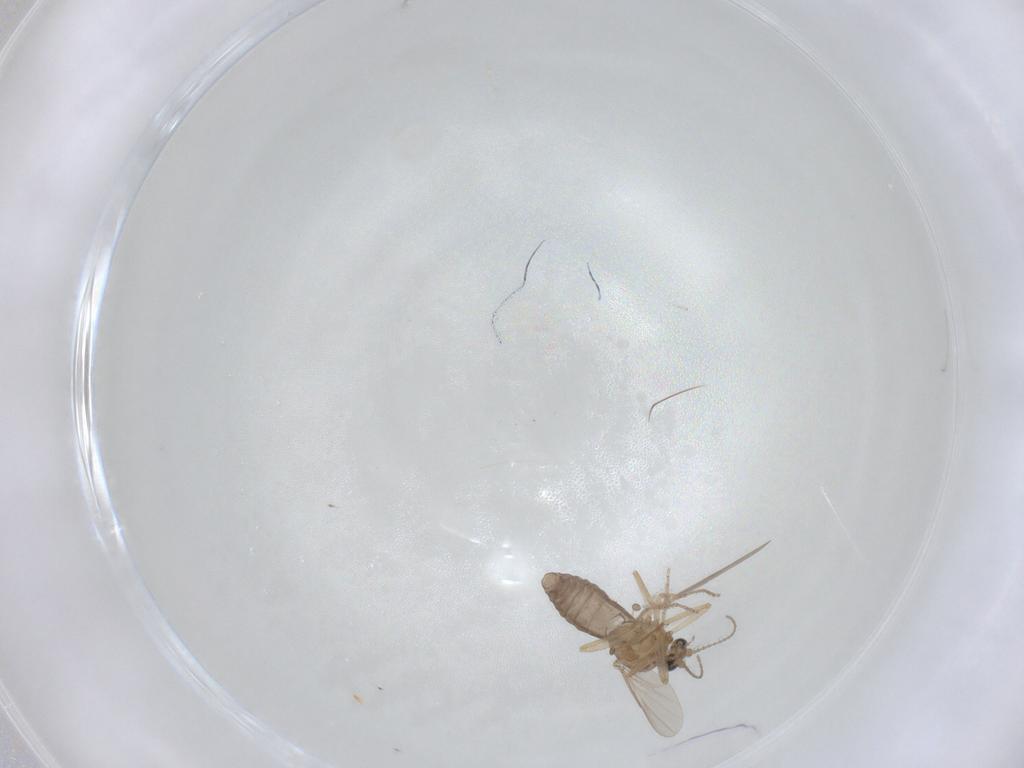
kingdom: Animalia
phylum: Arthropoda
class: Insecta
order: Diptera
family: Ceratopogonidae
